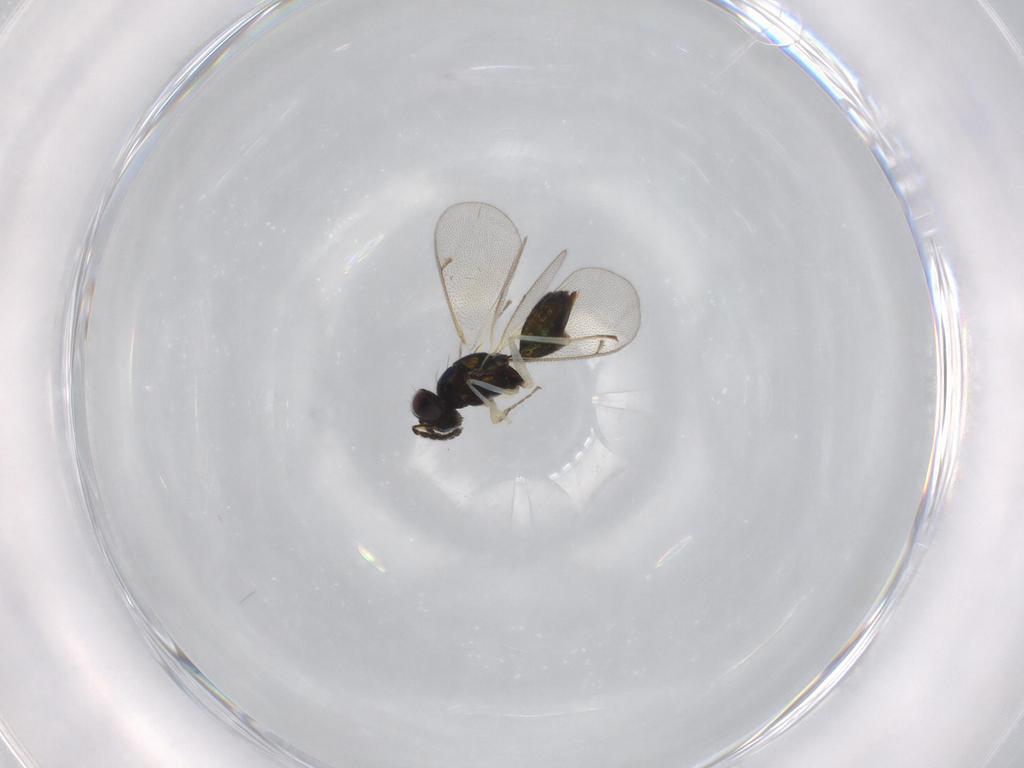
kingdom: Animalia
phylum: Arthropoda
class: Insecta
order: Hymenoptera
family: Eulophidae
